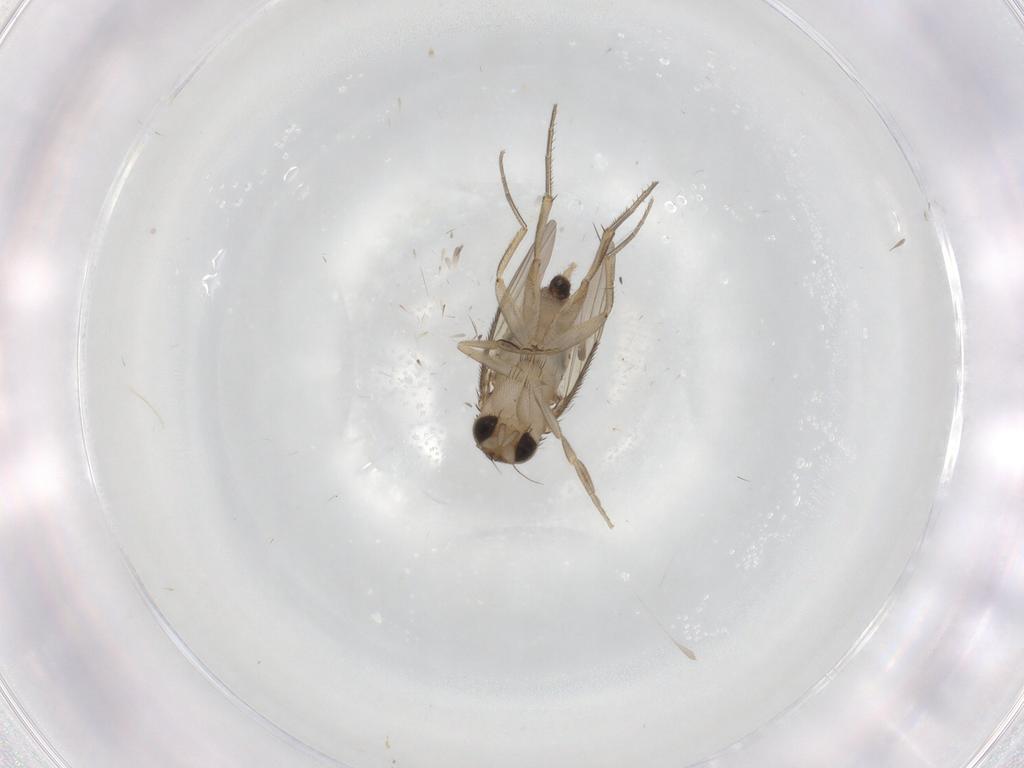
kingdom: Animalia
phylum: Arthropoda
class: Insecta
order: Diptera
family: Phoridae
